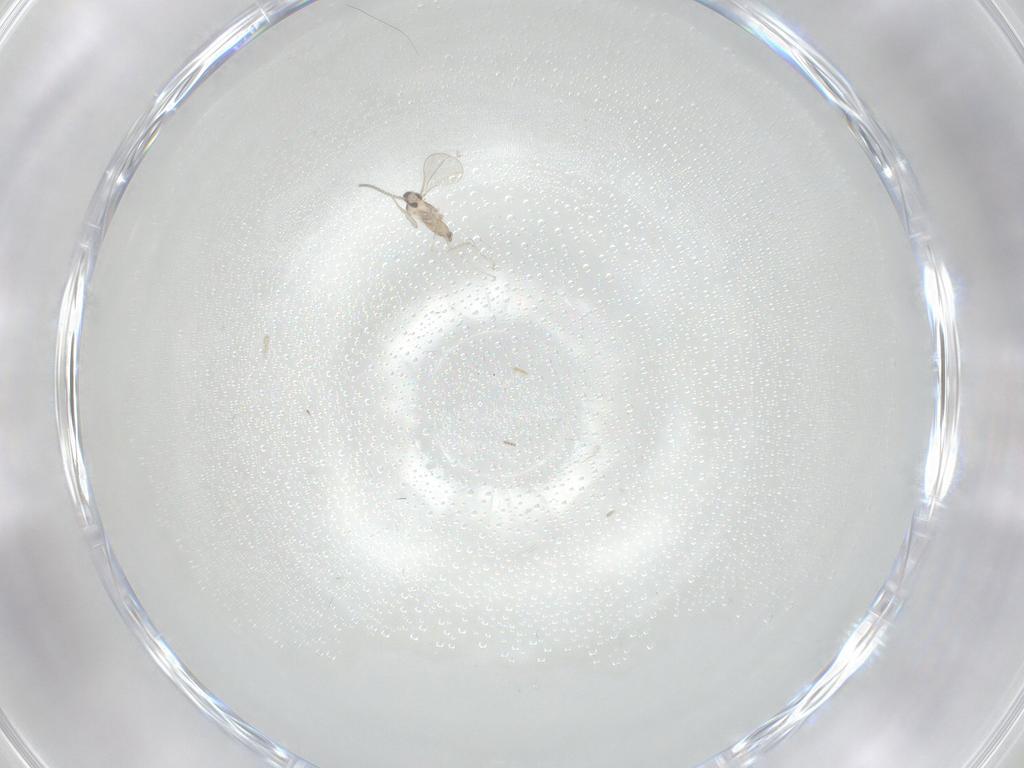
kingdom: Animalia
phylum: Arthropoda
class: Insecta
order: Diptera
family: Cecidomyiidae
